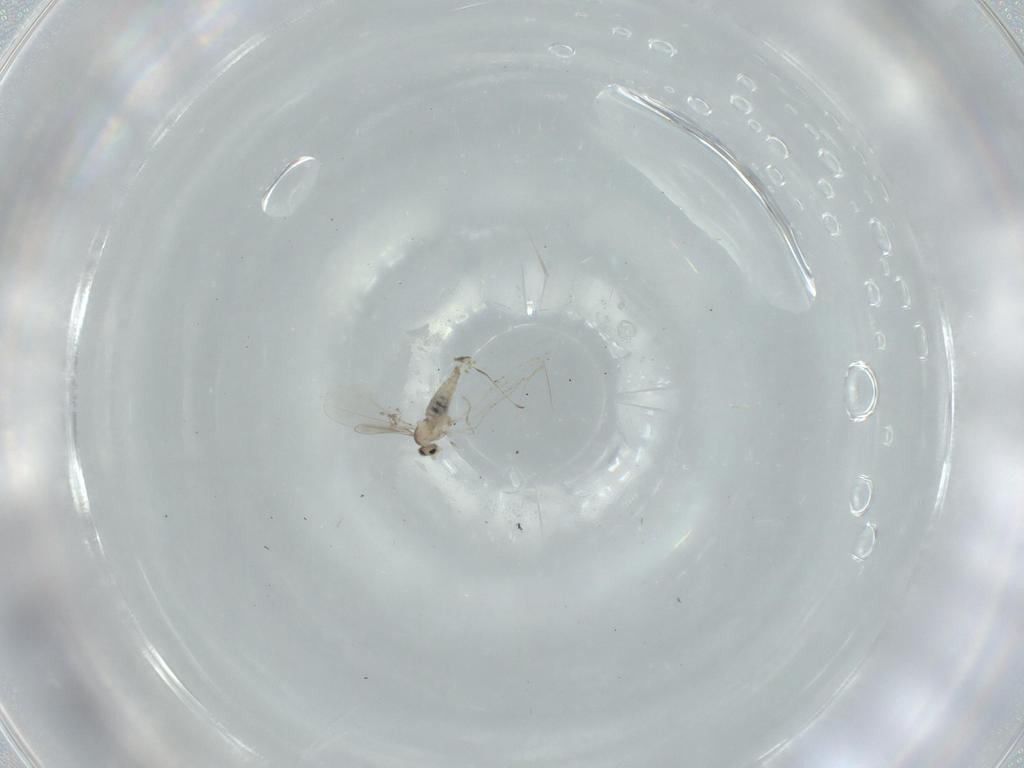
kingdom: Animalia
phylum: Arthropoda
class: Insecta
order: Diptera
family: Cecidomyiidae
